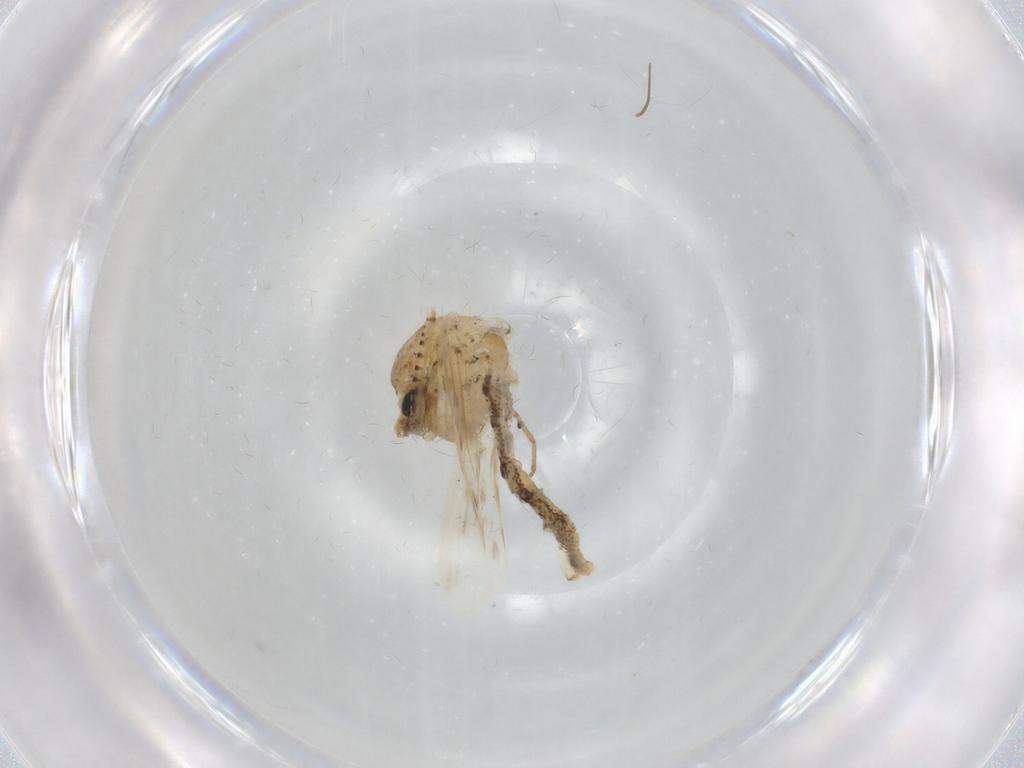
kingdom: Animalia
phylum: Arthropoda
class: Insecta
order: Diptera
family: Chaoboridae
